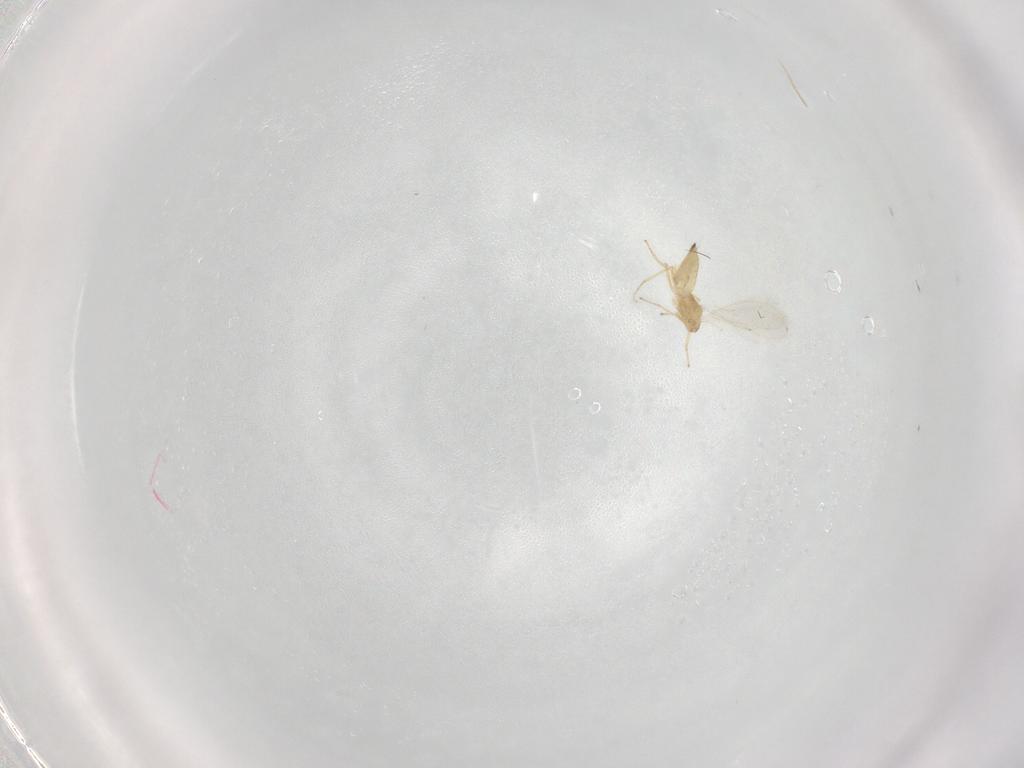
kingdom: Animalia
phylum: Arthropoda
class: Insecta
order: Hymenoptera
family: Eulophidae
